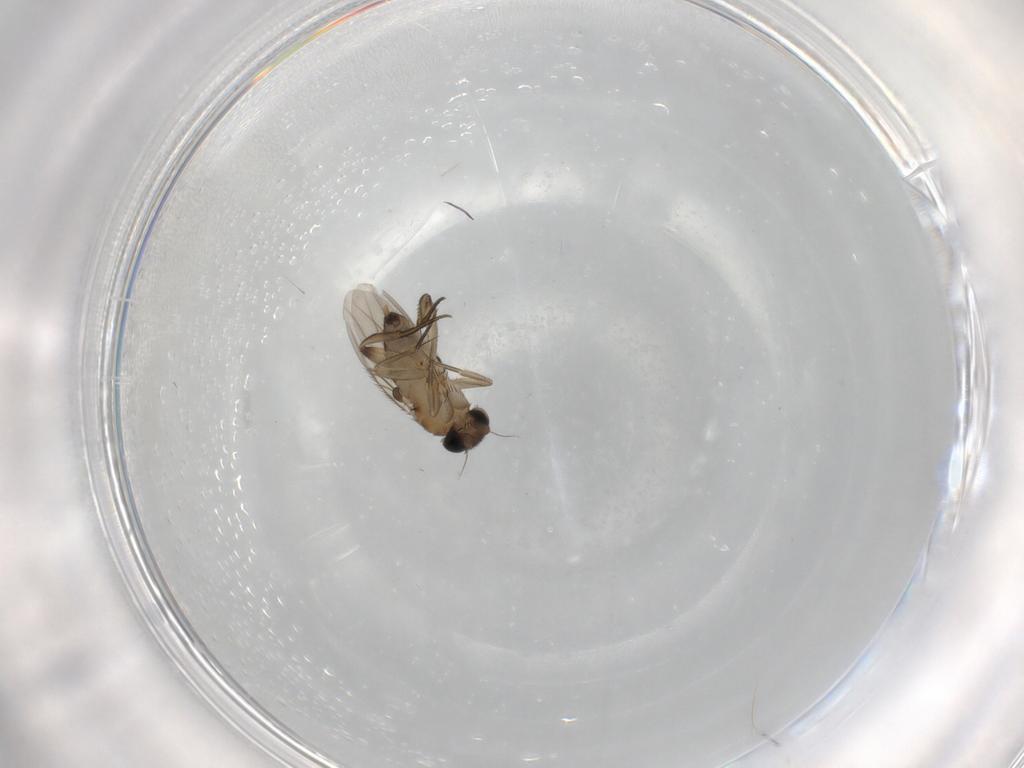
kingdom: Animalia
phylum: Arthropoda
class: Insecta
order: Diptera
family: Phoridae
